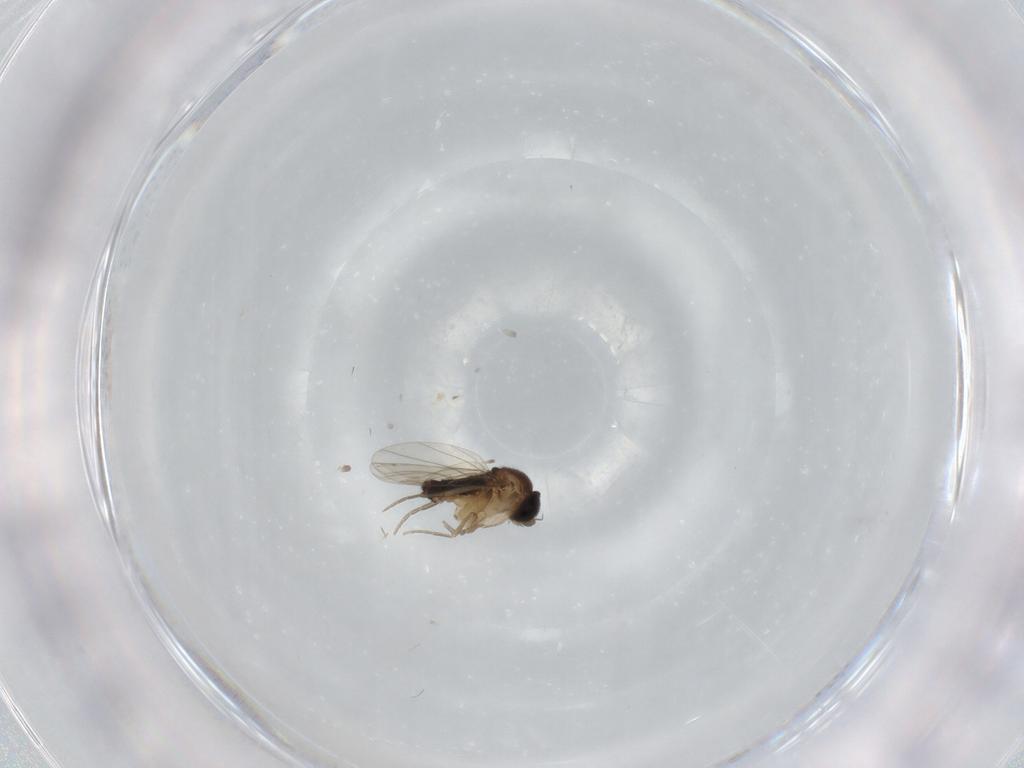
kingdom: Animalia
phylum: Arthropoda
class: Insecta
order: Diptera
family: Phoridae
